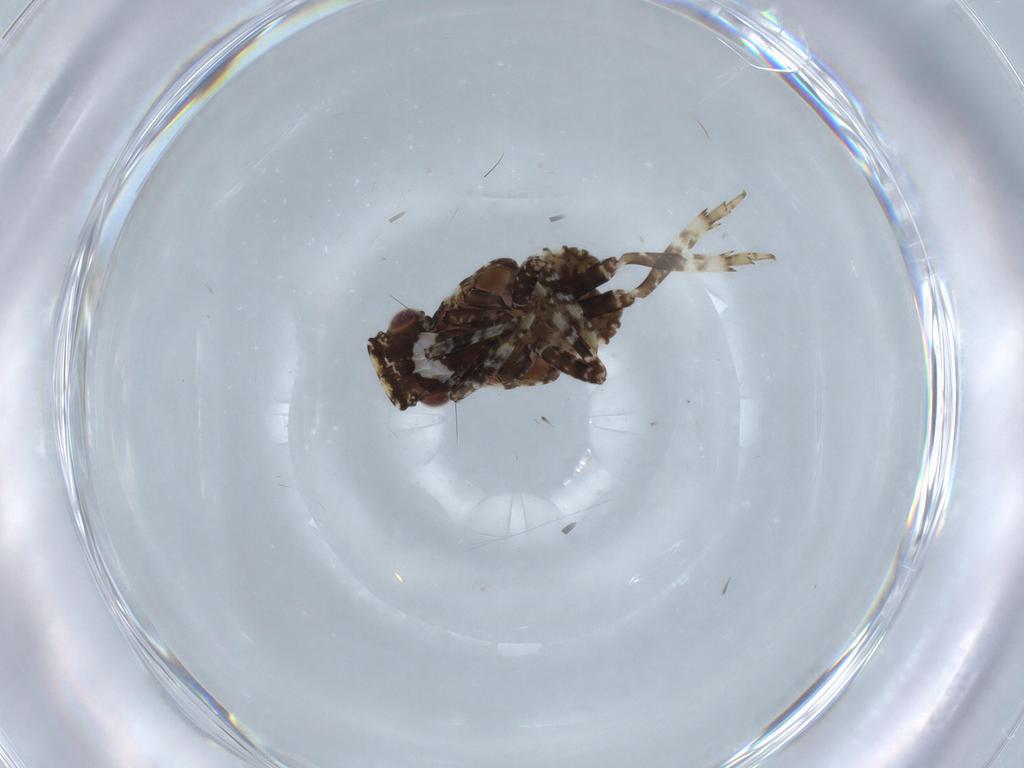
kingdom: Animalia
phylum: Arthropoda
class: Insecta
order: Hemiptera
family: Fulgoridae
